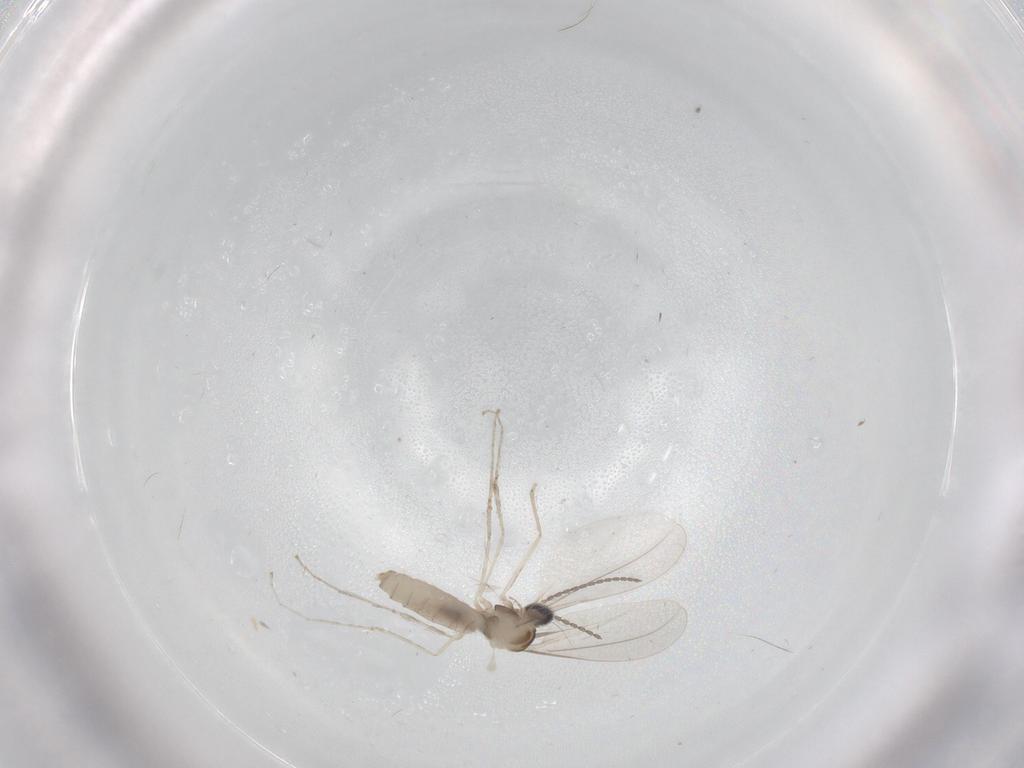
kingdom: Animalia
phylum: Arthropoda
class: Insecta
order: Diptera
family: Cecidomyiidae
